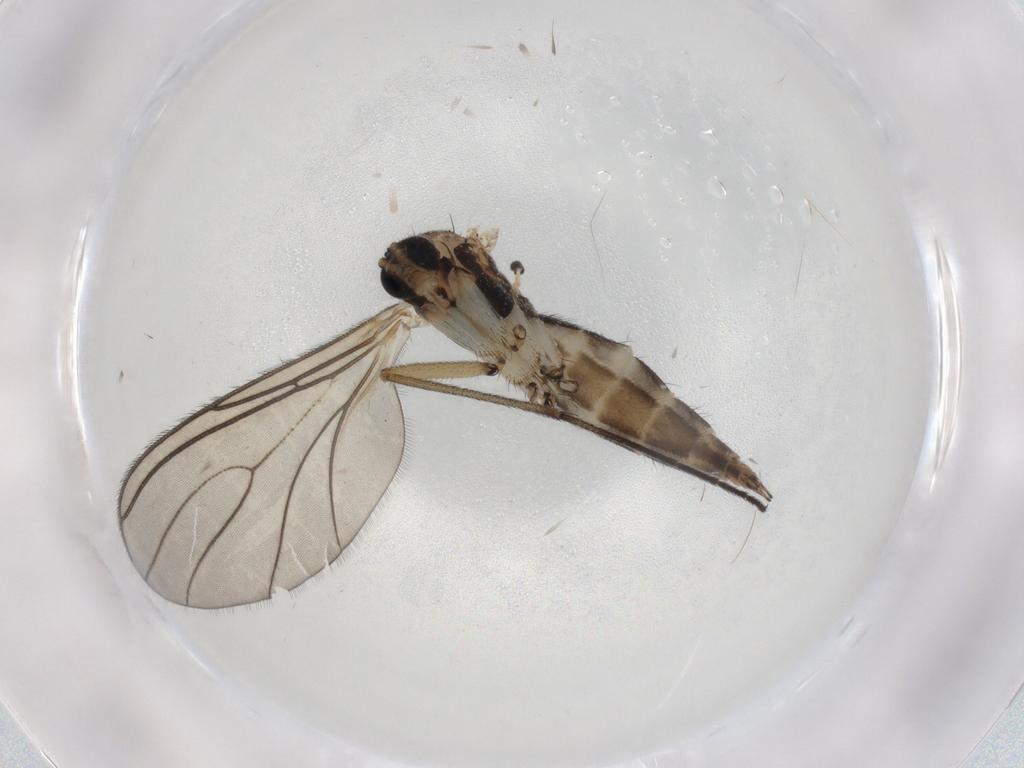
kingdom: Animalia
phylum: Arthropoda
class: Insecta
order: Diptera
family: Sciaridae
